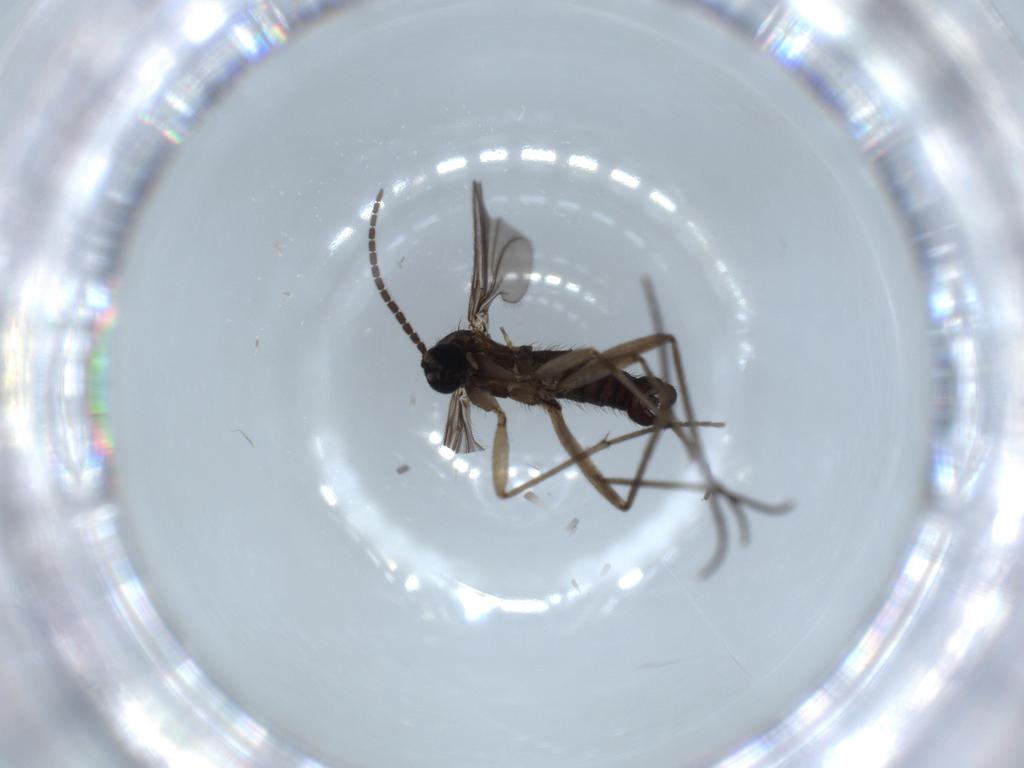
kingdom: Animalia
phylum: Arthropoda
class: Insecta
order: Diptera
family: Sciaridae
